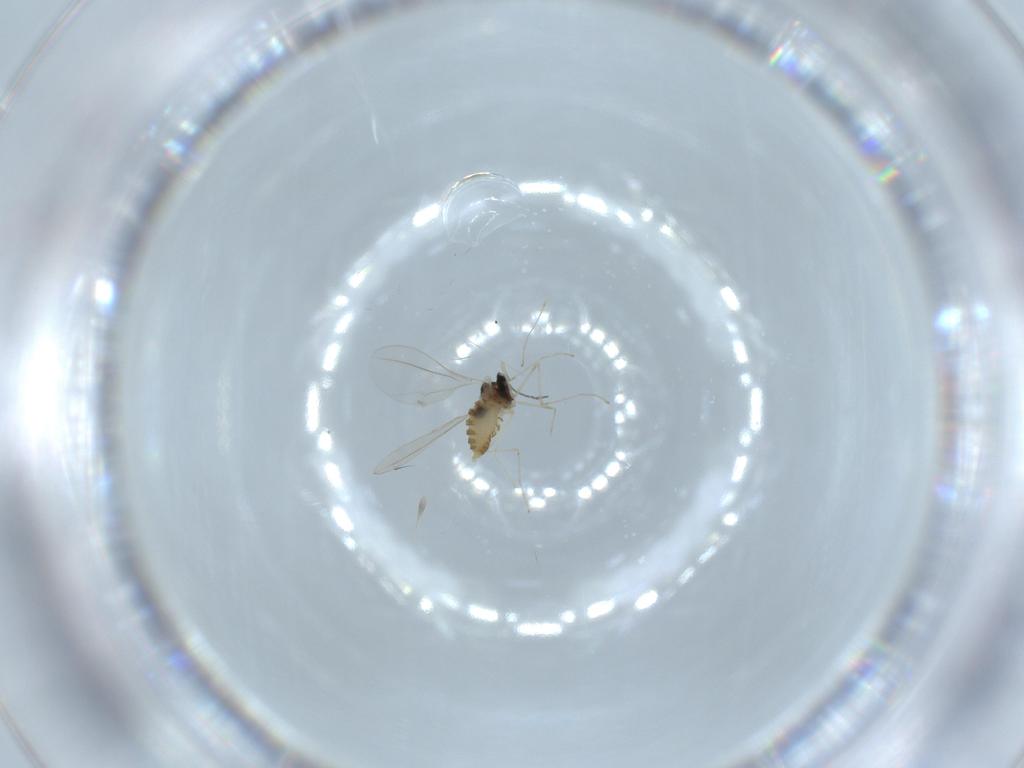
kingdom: Animalia
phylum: Arthropoda
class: Insecta
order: Diptera
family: Cecidomyiidae
